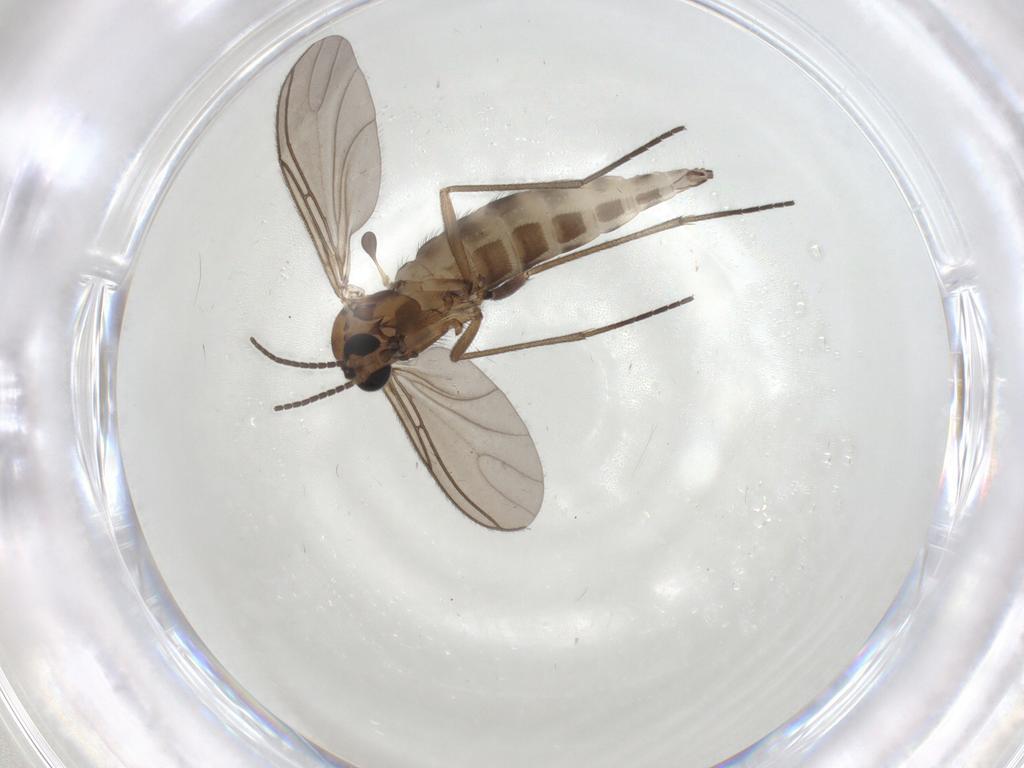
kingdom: Animalia
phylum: Arthropoda
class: Insecta
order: Diptera
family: Sciaridae
